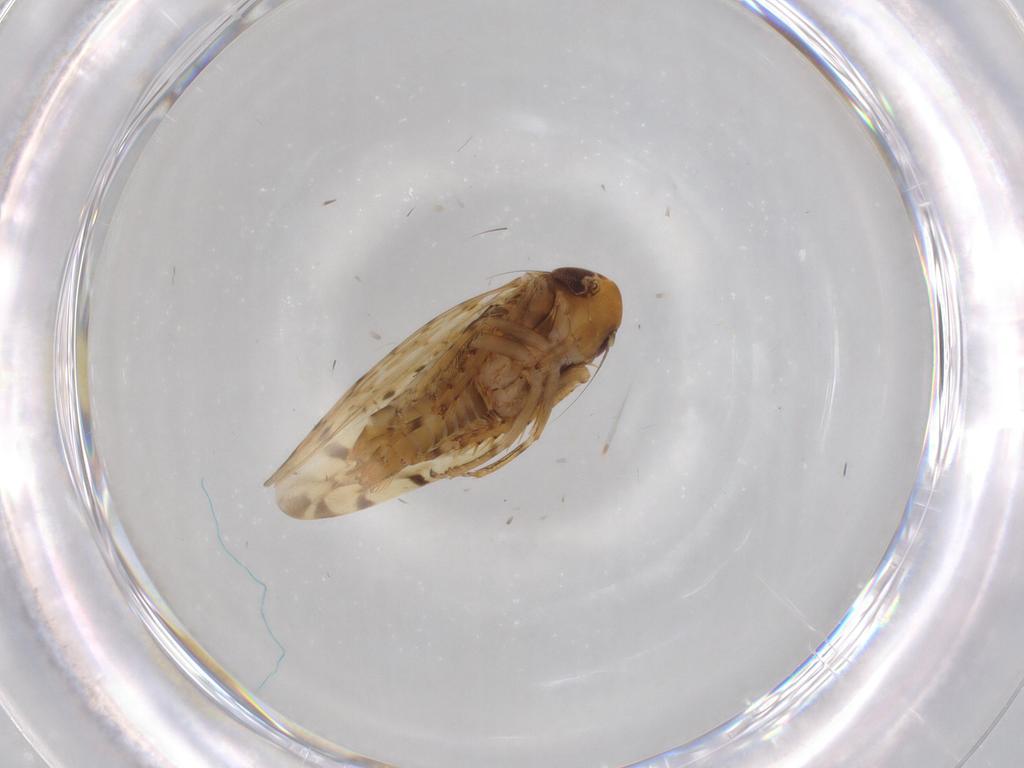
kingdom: Animalia
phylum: Arthropoda
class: Insecta
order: Hemiptera
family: Cicadellidae
